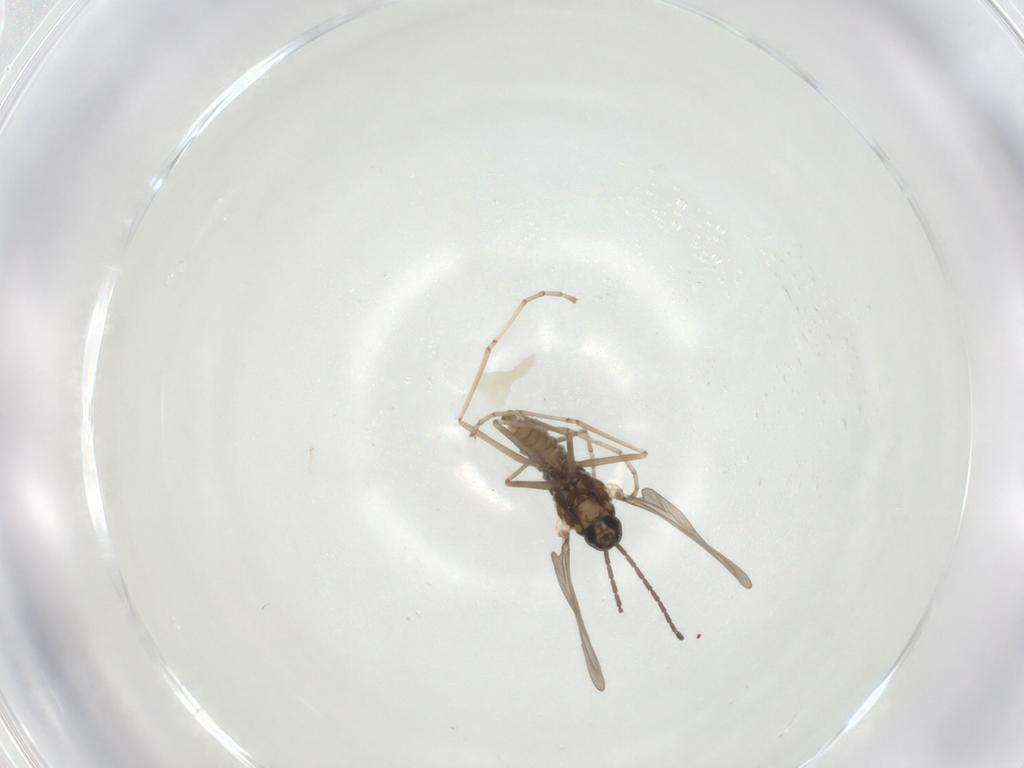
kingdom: Animalia
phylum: Arthropoda
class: Insecta
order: Diptera
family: Cecidomyiidae
